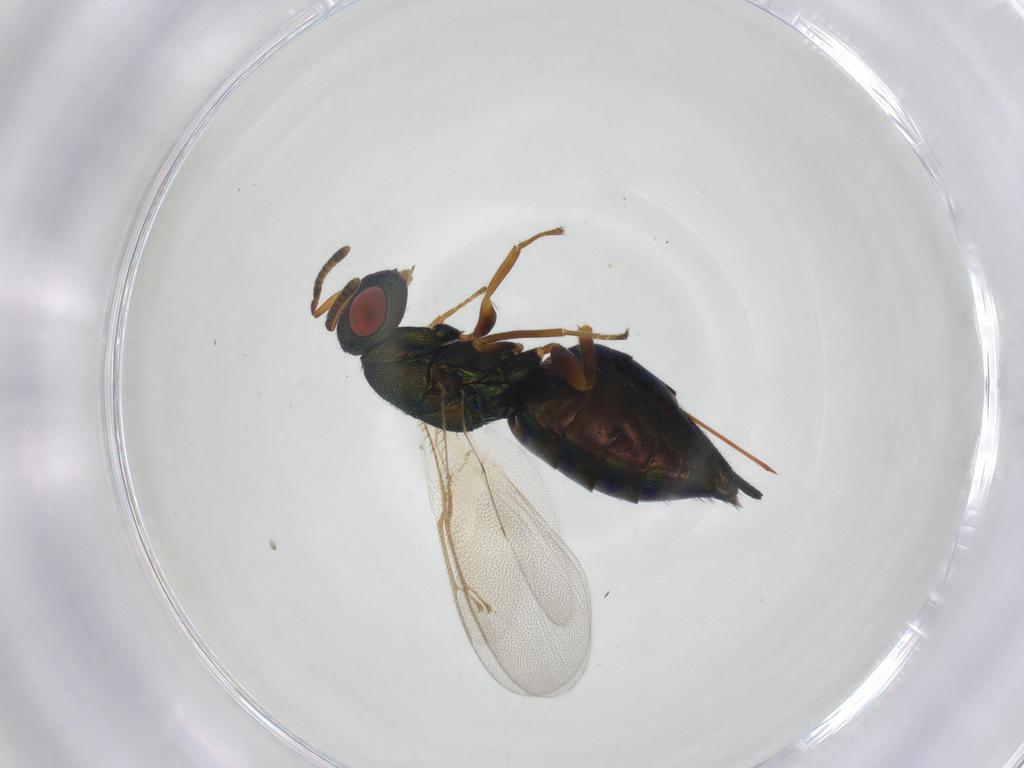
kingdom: Animalia
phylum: Arthropoda
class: Insecta
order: Hymenoptera
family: Pteromalidae
